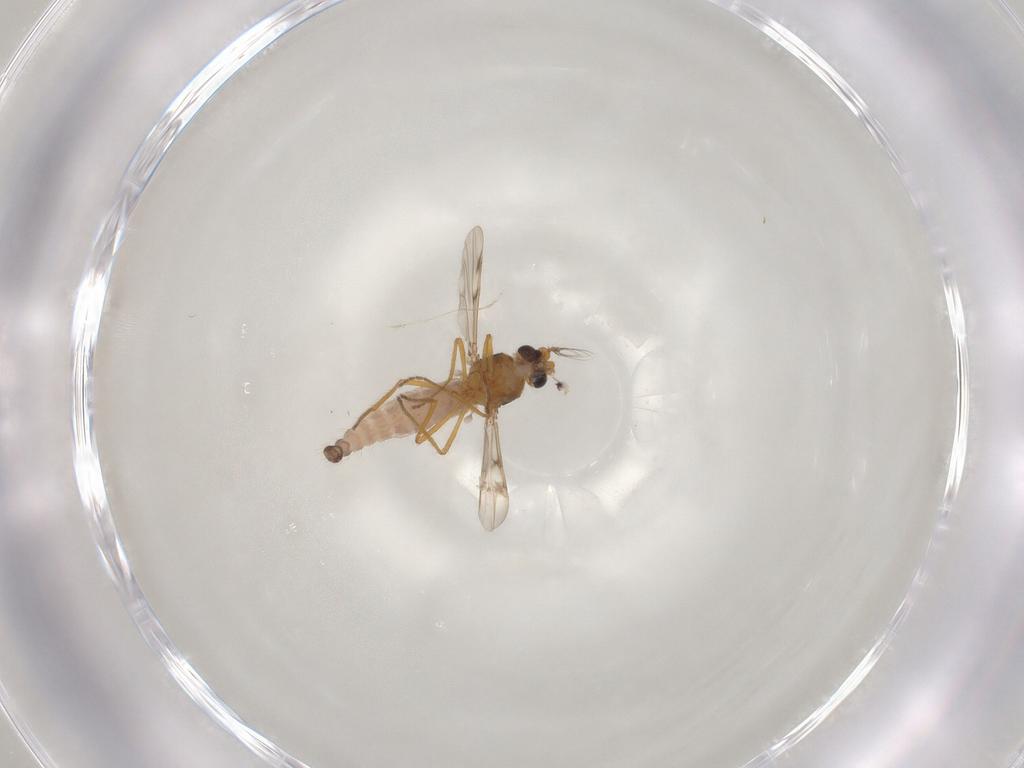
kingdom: Animalia
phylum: Arthropoda
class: Insecta
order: Diptera
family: Ceratopogonidae
